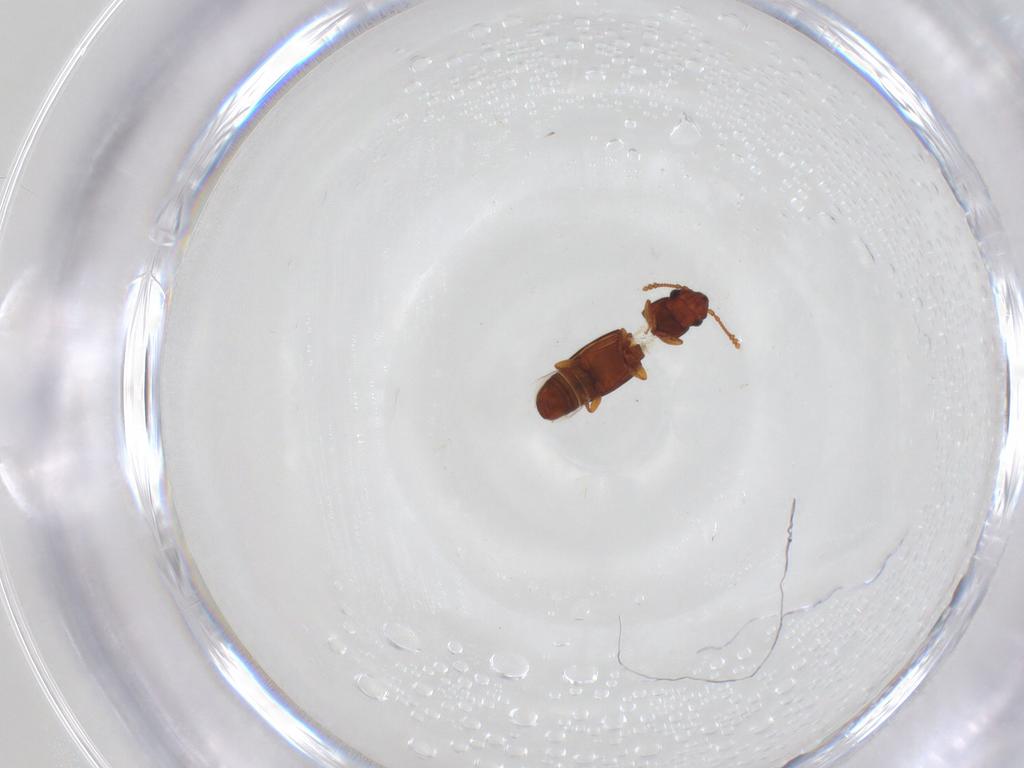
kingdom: Animalia
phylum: Arthropoda
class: Insecta
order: Coleoptera
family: Smicripidae
